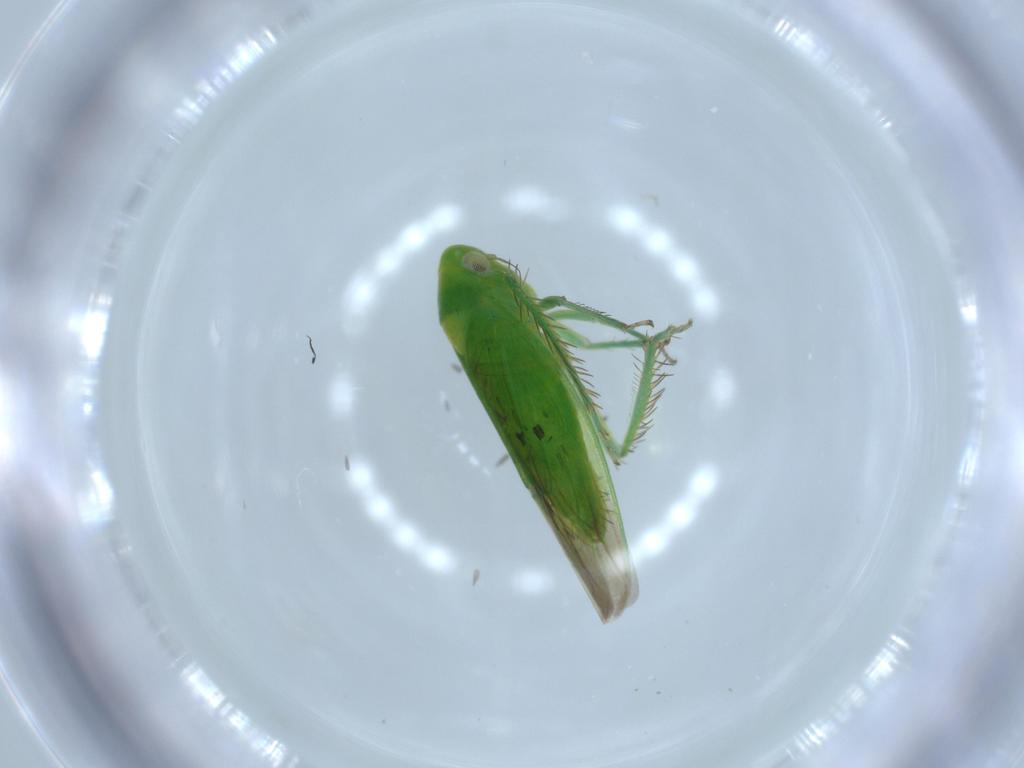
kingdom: Animalia
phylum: Arthropoda
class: Insecta
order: Hemiptera
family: Cicadellidae
